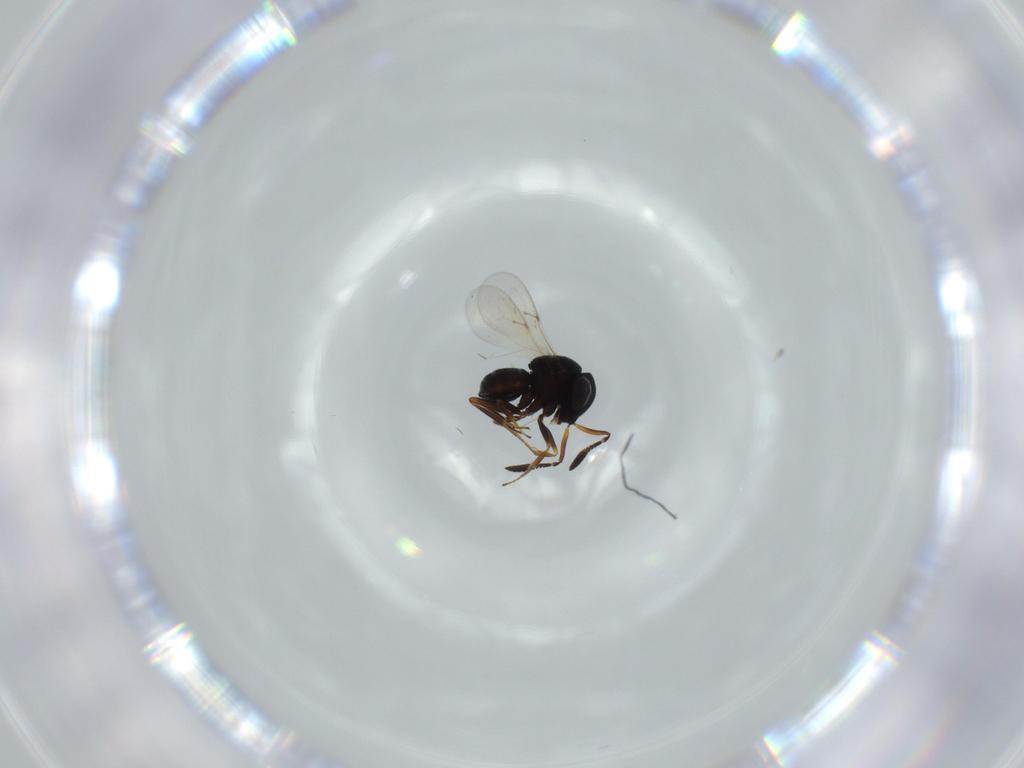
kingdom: Animalia
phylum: Arthropoda
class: Insecta
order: Hymenoptera
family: Scelionidae
